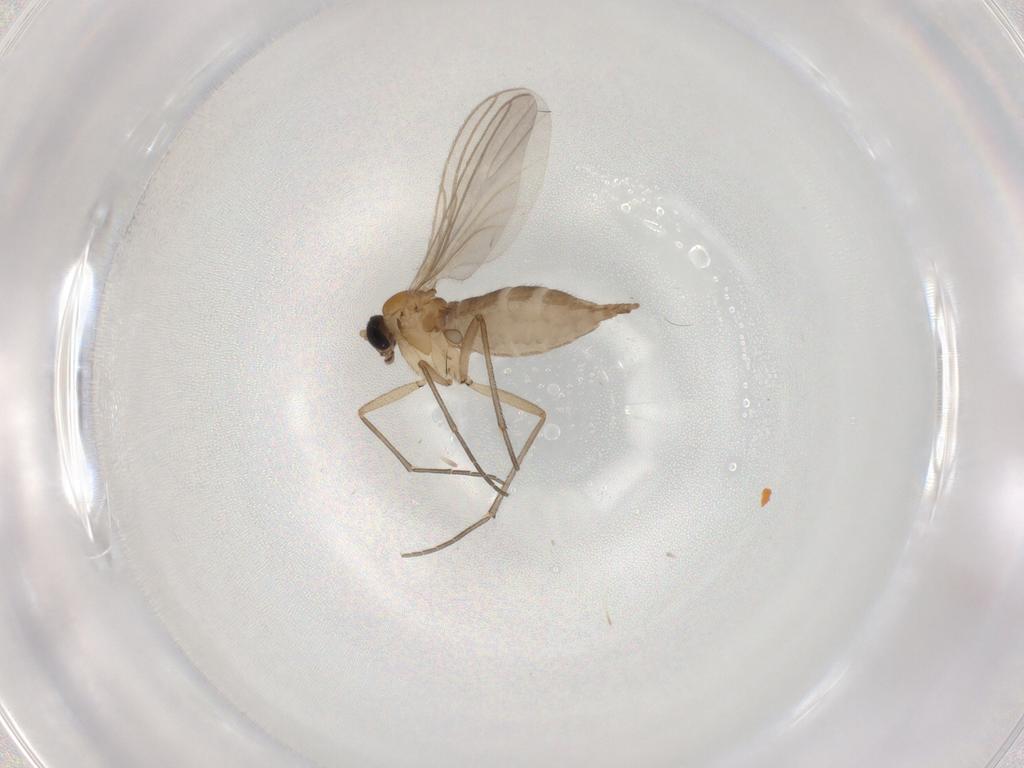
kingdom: Animalia
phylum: Arthropoda
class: Insecta
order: Diptera
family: Sciaridae
